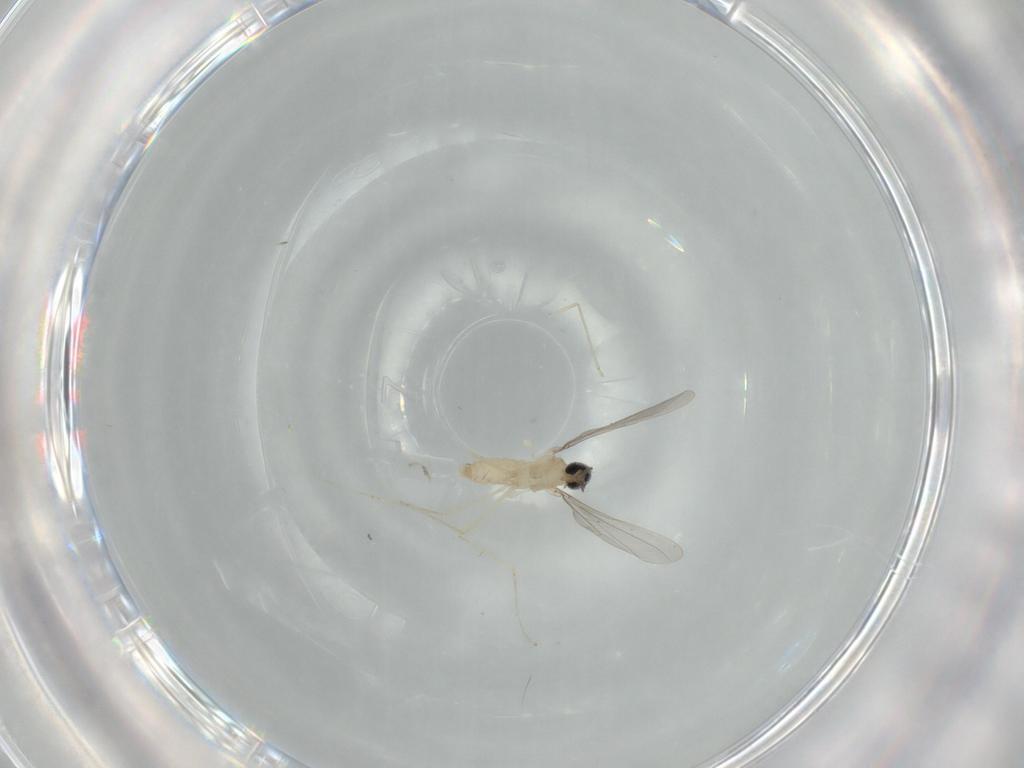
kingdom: Animalia
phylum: Arthropoda
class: Insecta
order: Diptera
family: Cecidomyiidae
